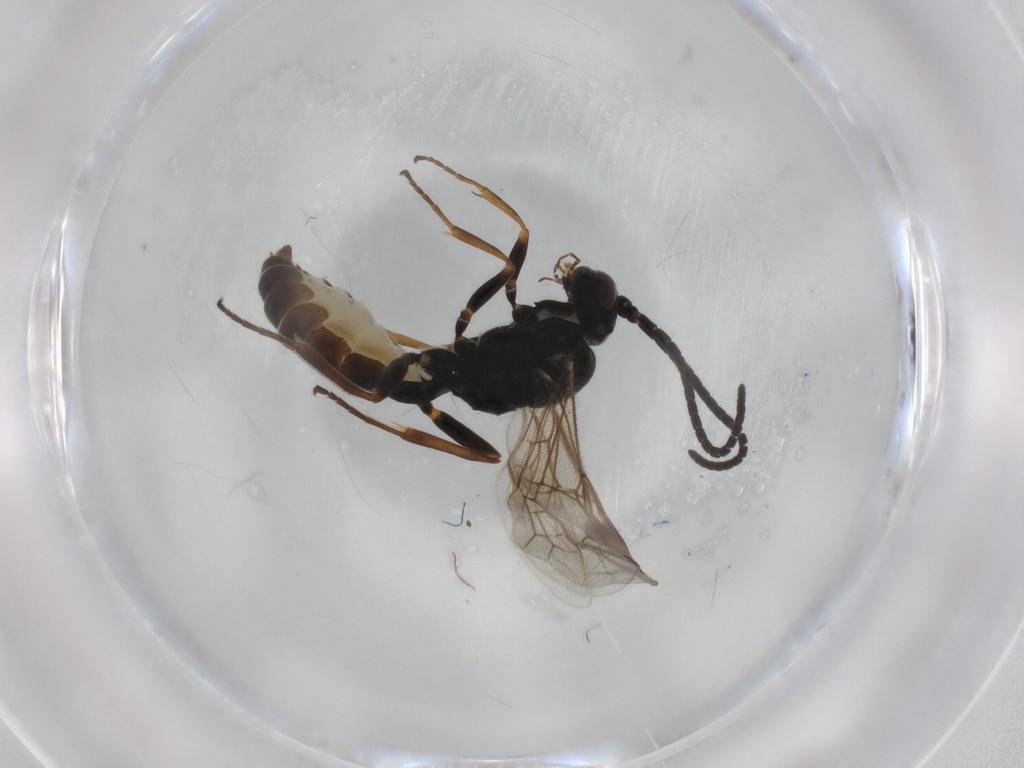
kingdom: Animalia
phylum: Arthropoda
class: Insecta
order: Hymenoptera
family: Ichneumonidae
